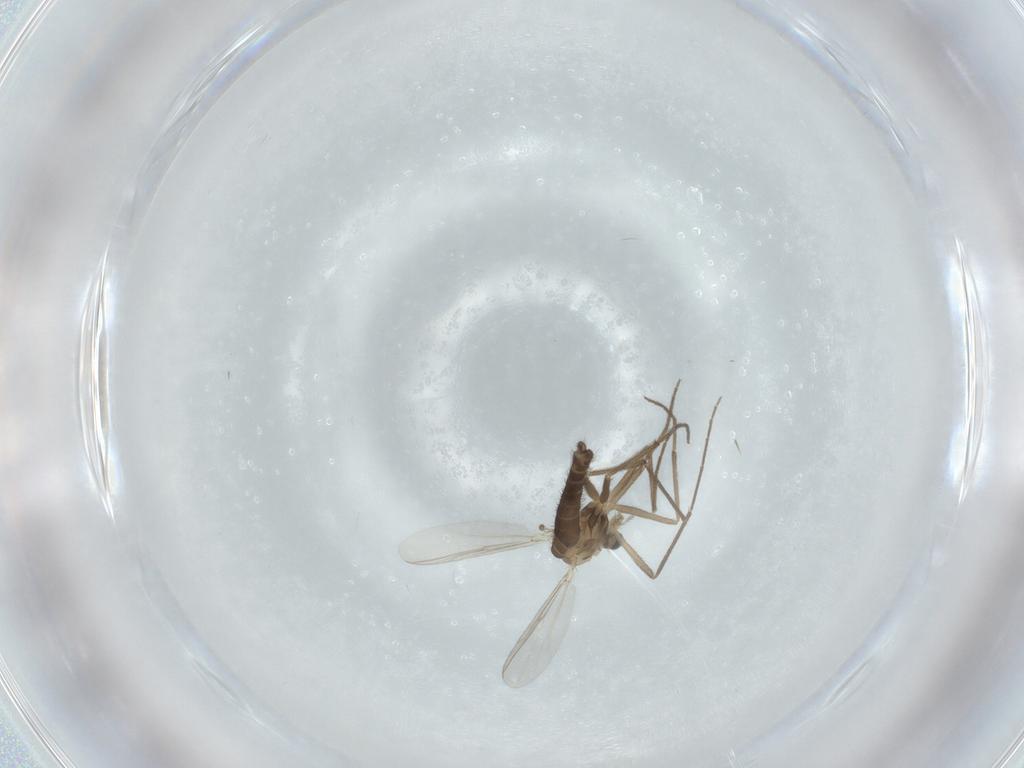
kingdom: Animalia
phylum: Arthropoda
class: Insecta
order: Diptera
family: Chironomidae
